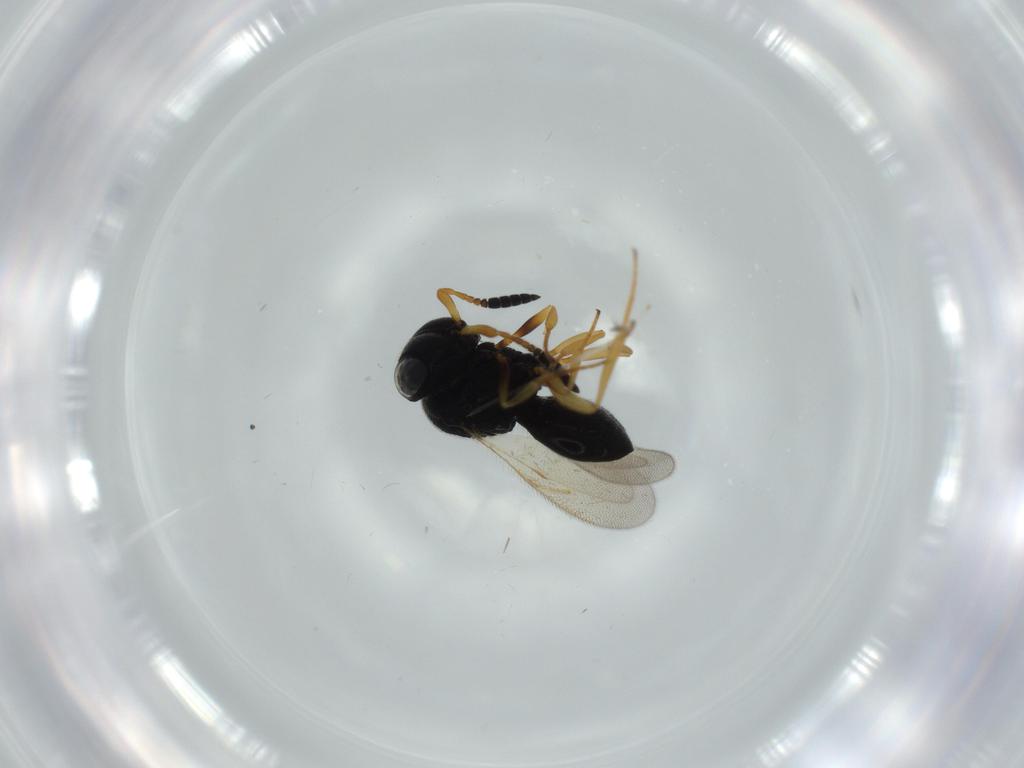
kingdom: Animalia
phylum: Arthropoda
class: Insecta
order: Hymenoptera
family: Scelionidae
